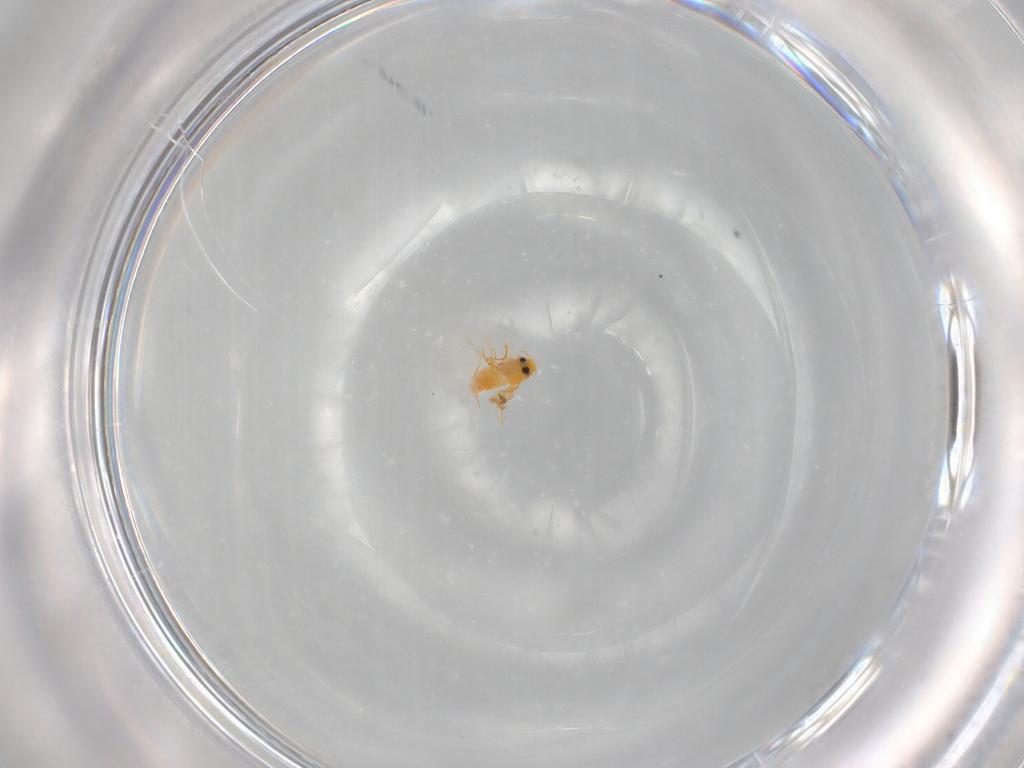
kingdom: Animalia
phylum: Arthropoda
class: Insecta
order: Hemiptera
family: Aleyrodidae
